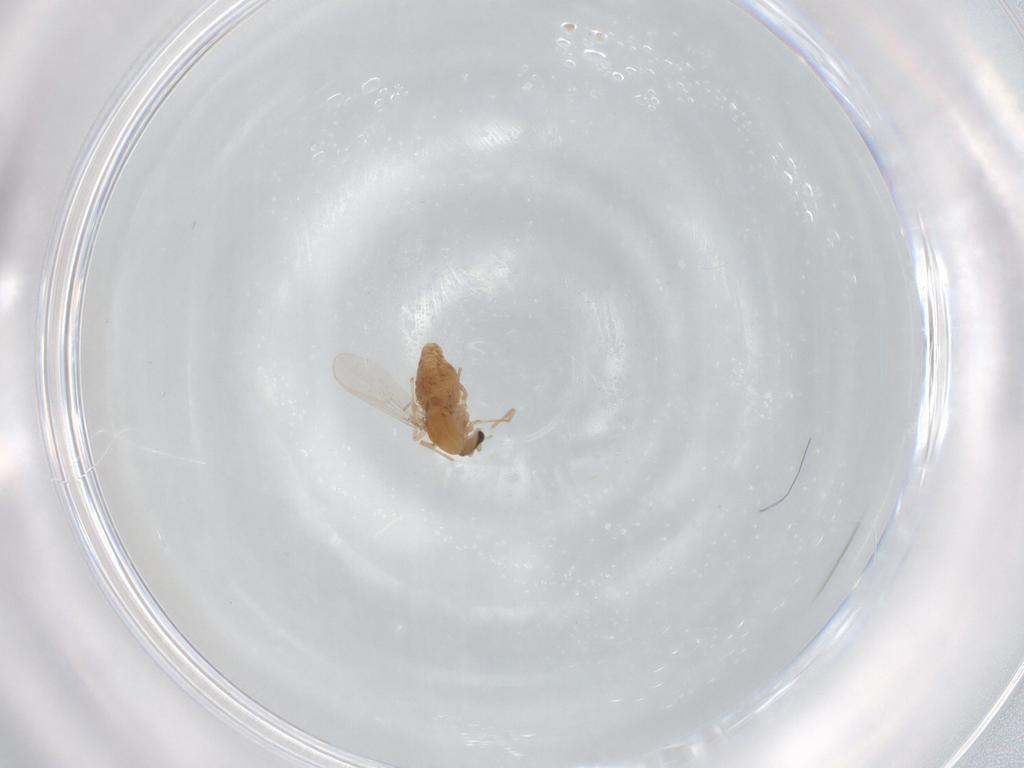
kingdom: Animalia
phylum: Arthropoda
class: Insecta
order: Diptera
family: Chironomidae
